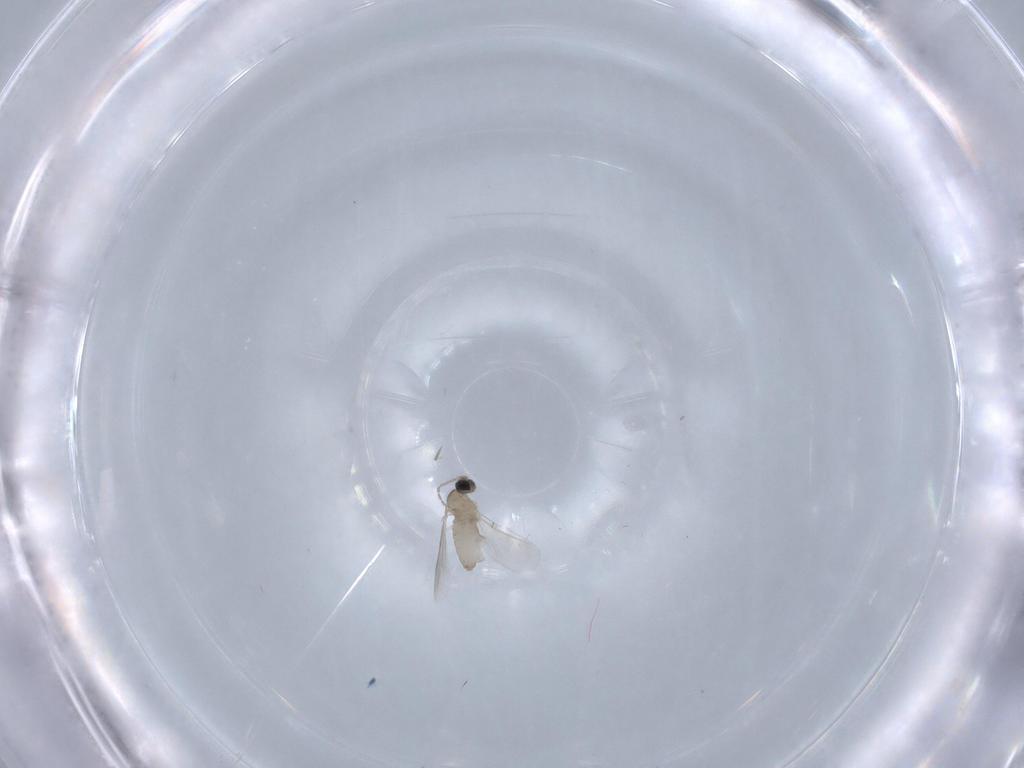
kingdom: Animalia
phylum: Arthropoda
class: Insecta
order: Diptera
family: Cecidomyiidae
